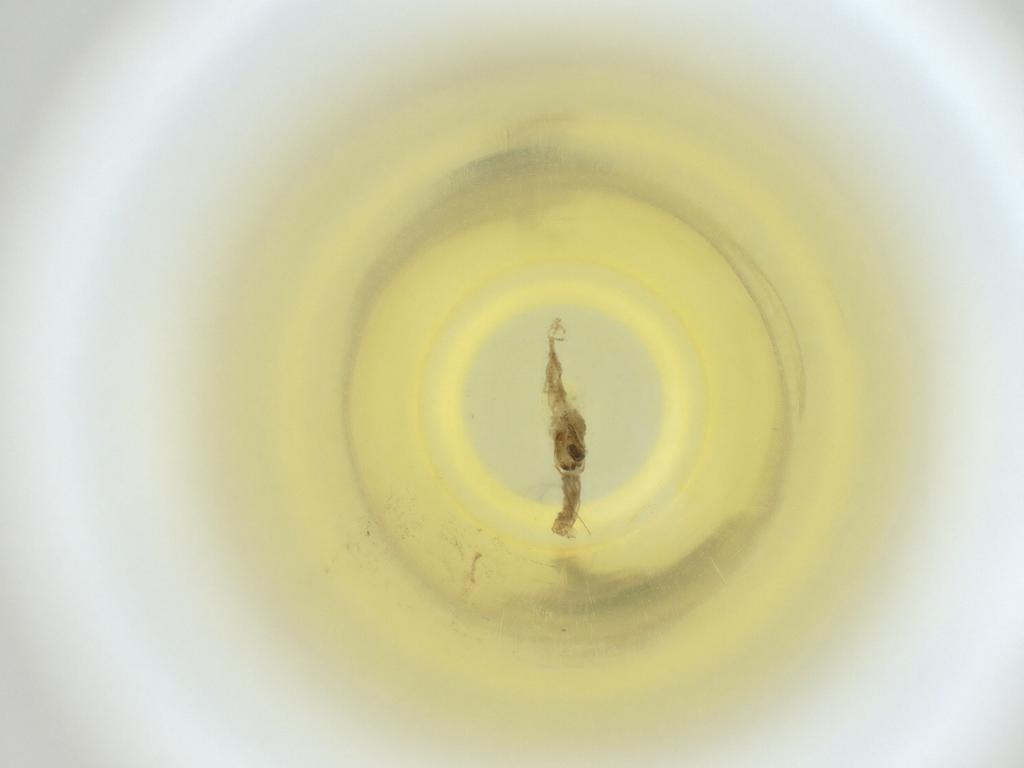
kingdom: Animalia
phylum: Arthropoda
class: Insecta
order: Diptera
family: Cecidomyiidae
